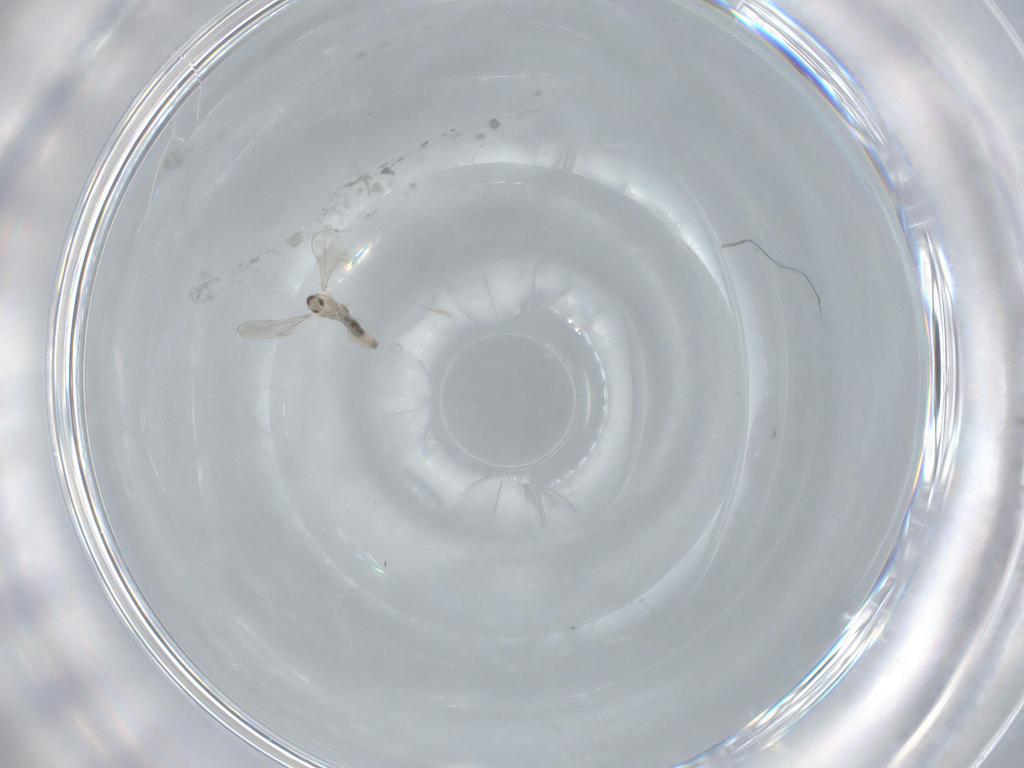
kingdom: Animalia
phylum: Arthropoda
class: Insecta
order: Diptera
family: Cecidomyiidae
